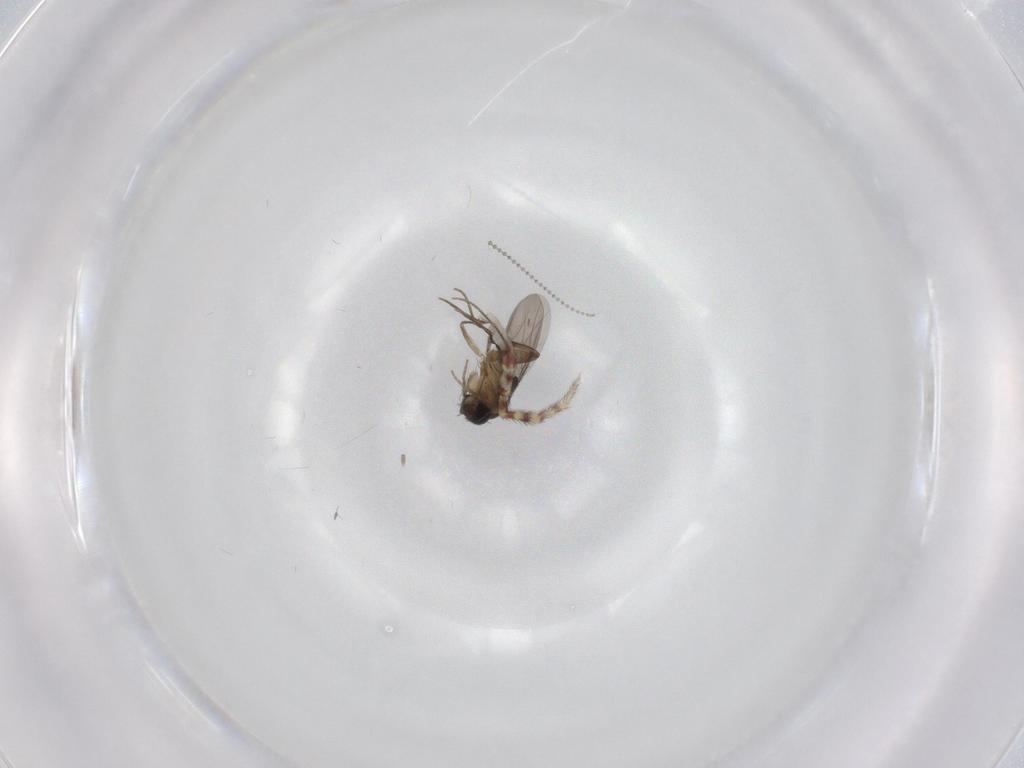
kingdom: Animalia
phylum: Arthropoda
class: Insecta
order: Diptera
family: Phoridae
